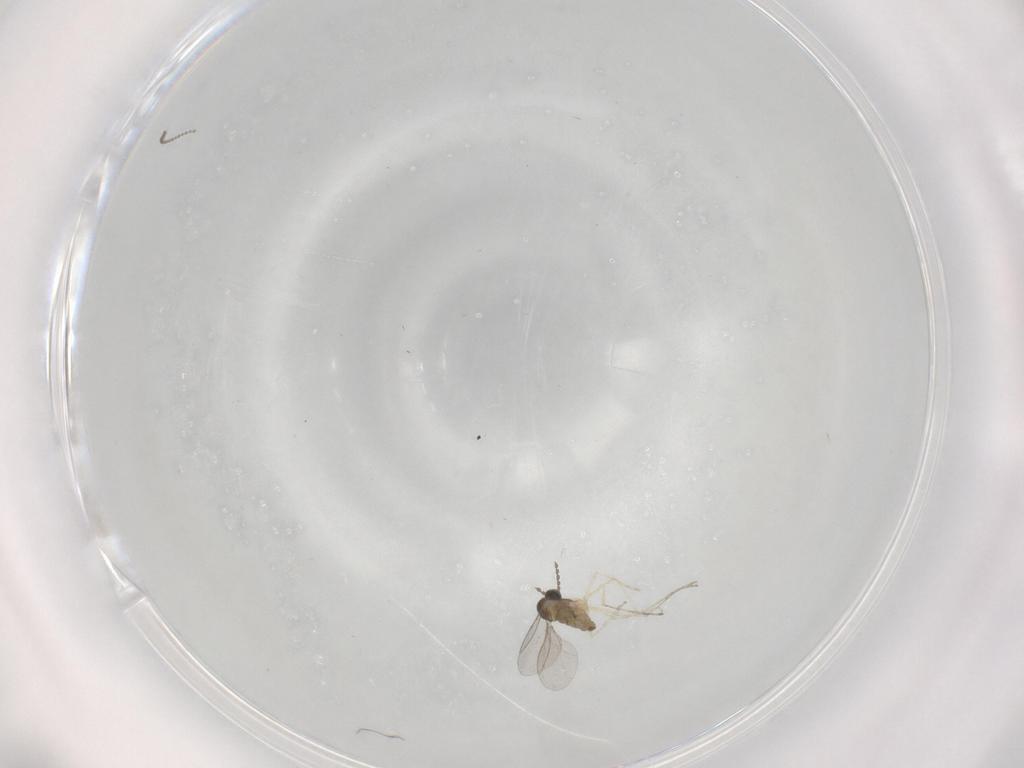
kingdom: Animalia
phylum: Arthropoda
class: Insecta
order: Diptera
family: Cecidomyiidae
